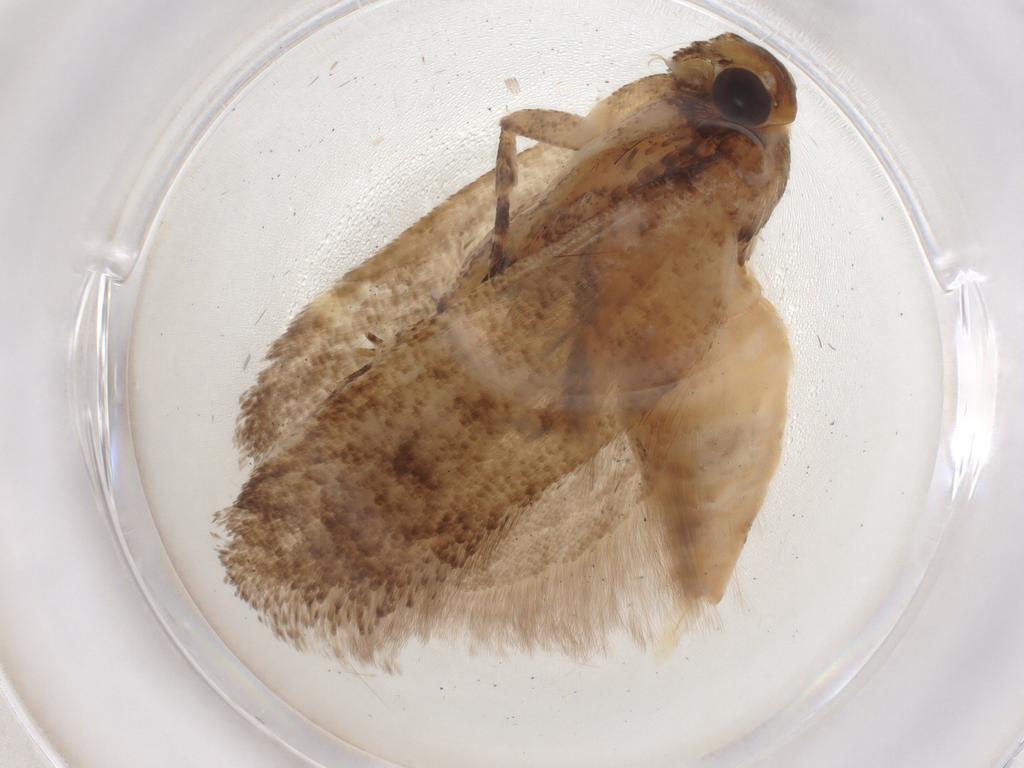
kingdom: Animalia
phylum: Arthropoda
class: Insecta
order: Lepidoptera
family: Gelechiidae
